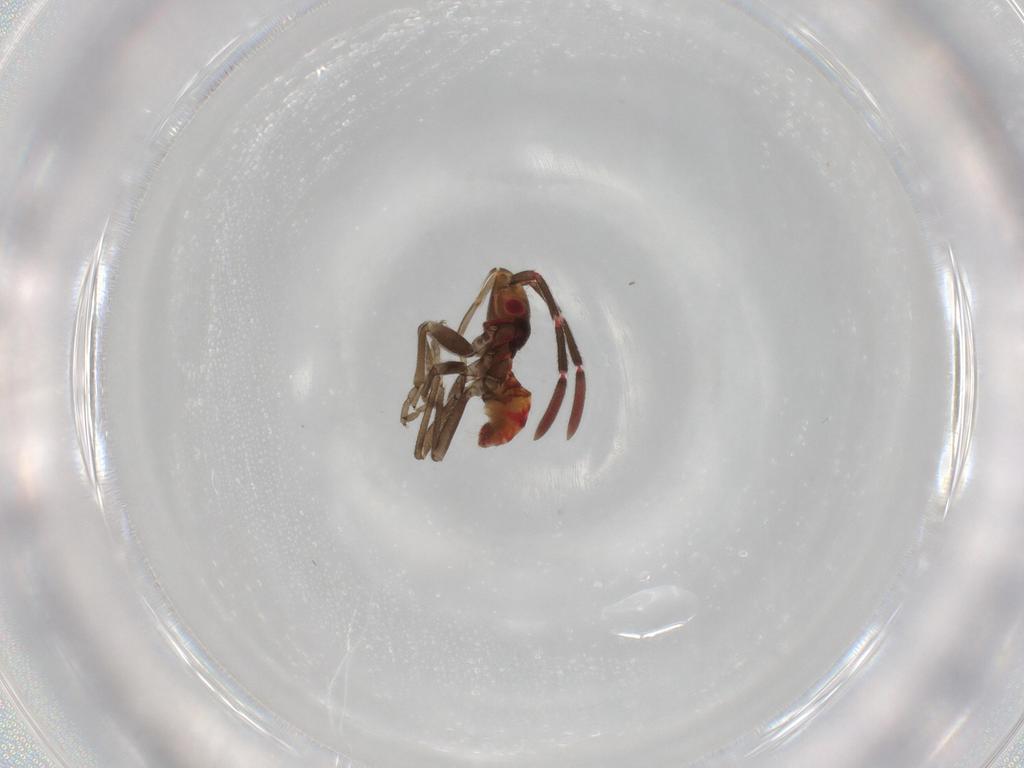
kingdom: Animalia
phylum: Arthropoda
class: Insecta
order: Hemiptera
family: Rhyparochromidae
